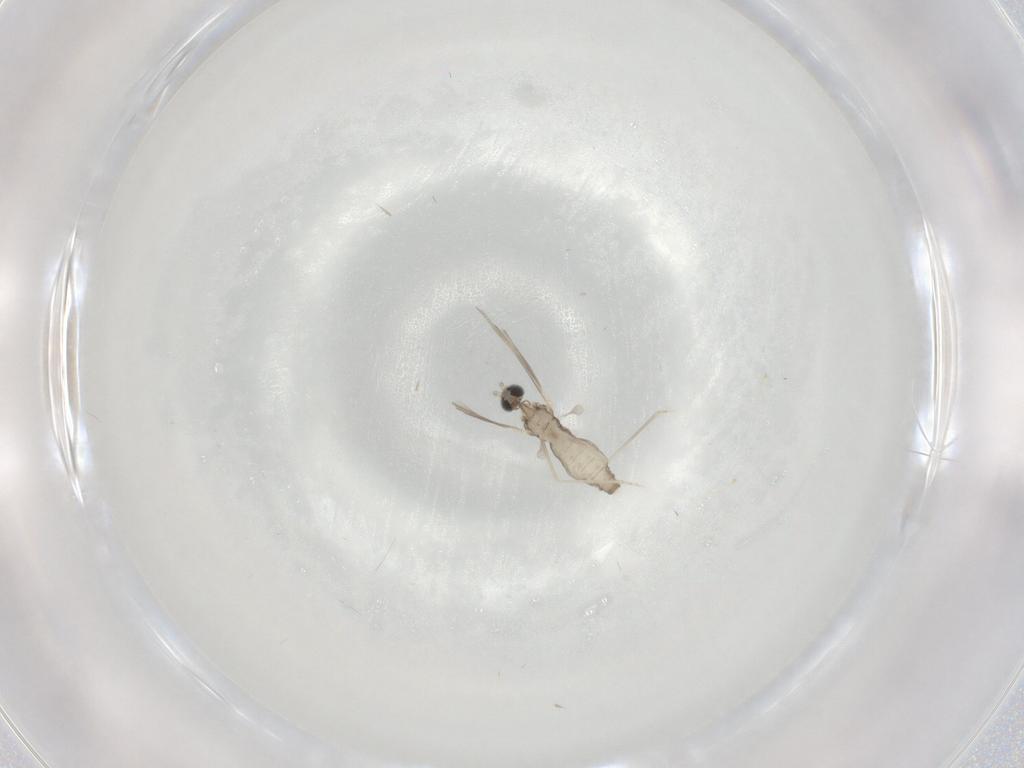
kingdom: Animalia
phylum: Arthropoda
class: Insecta
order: Diptera
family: Cecidomyiidae
